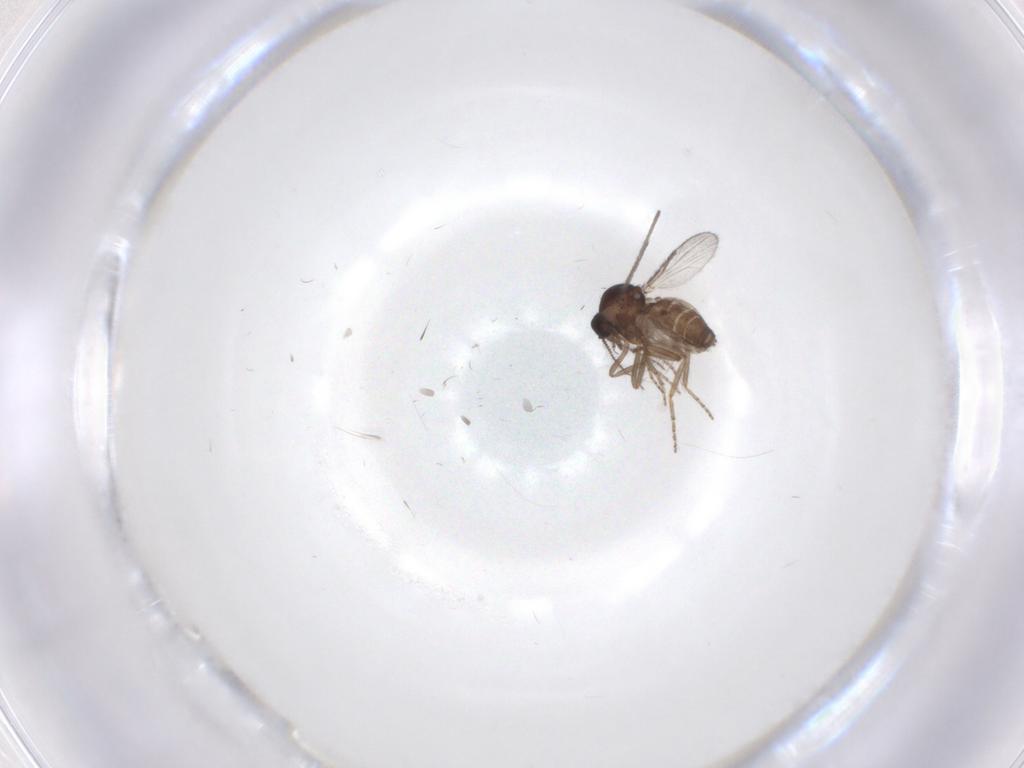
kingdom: Animalia
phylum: Arthropoda
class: Insecta
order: Diptera
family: Ceratopogonidae
